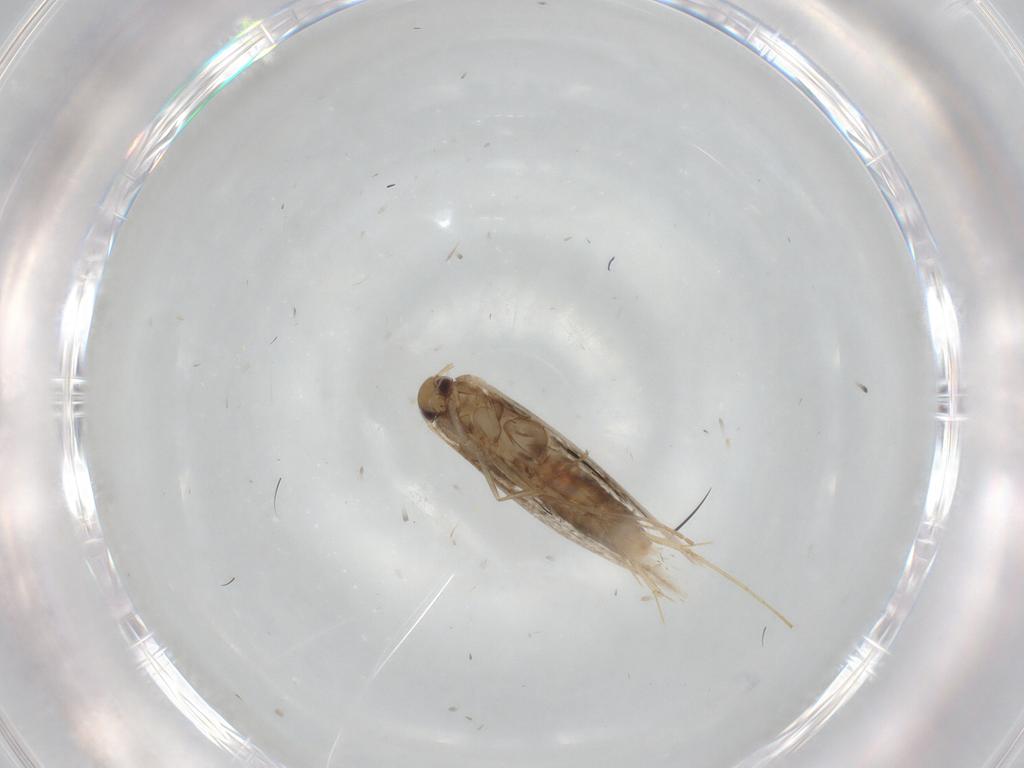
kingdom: Animalia
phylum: Arthropoda
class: Insecta
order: Lepidoptera
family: Gracillariidae
